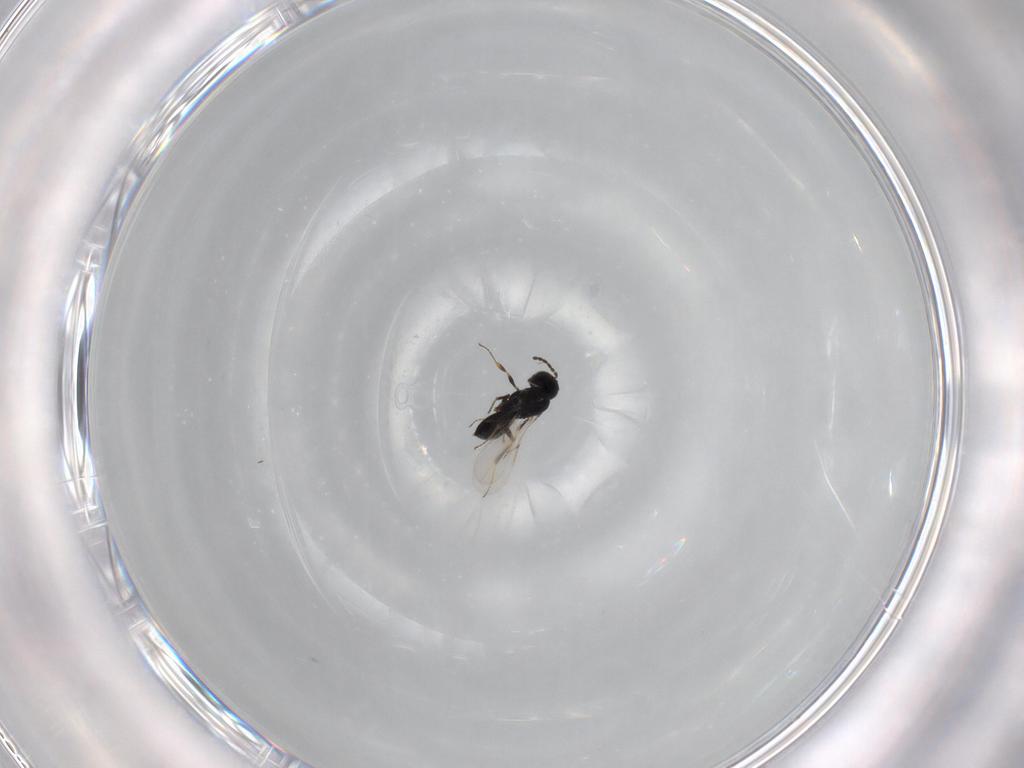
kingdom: Animalia
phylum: Arthropoda
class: Insecta
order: Hymenoptera
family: Scelionidae
